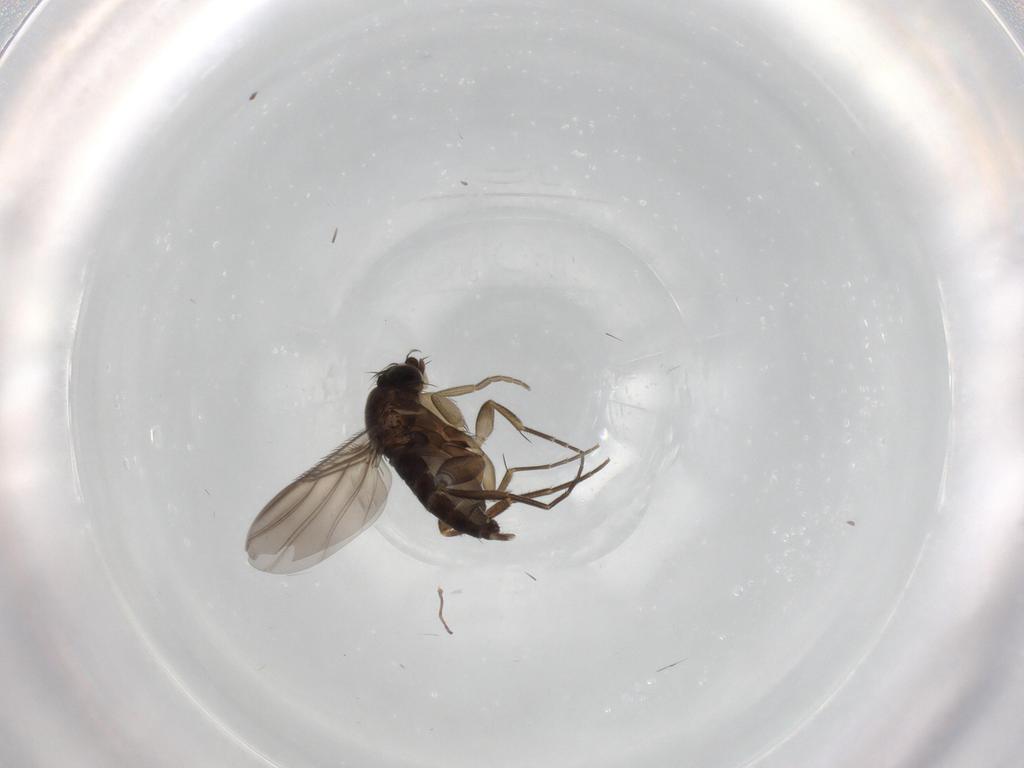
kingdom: Animalia
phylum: Arthropoda
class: Insecta
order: Diptera
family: Phoridae
